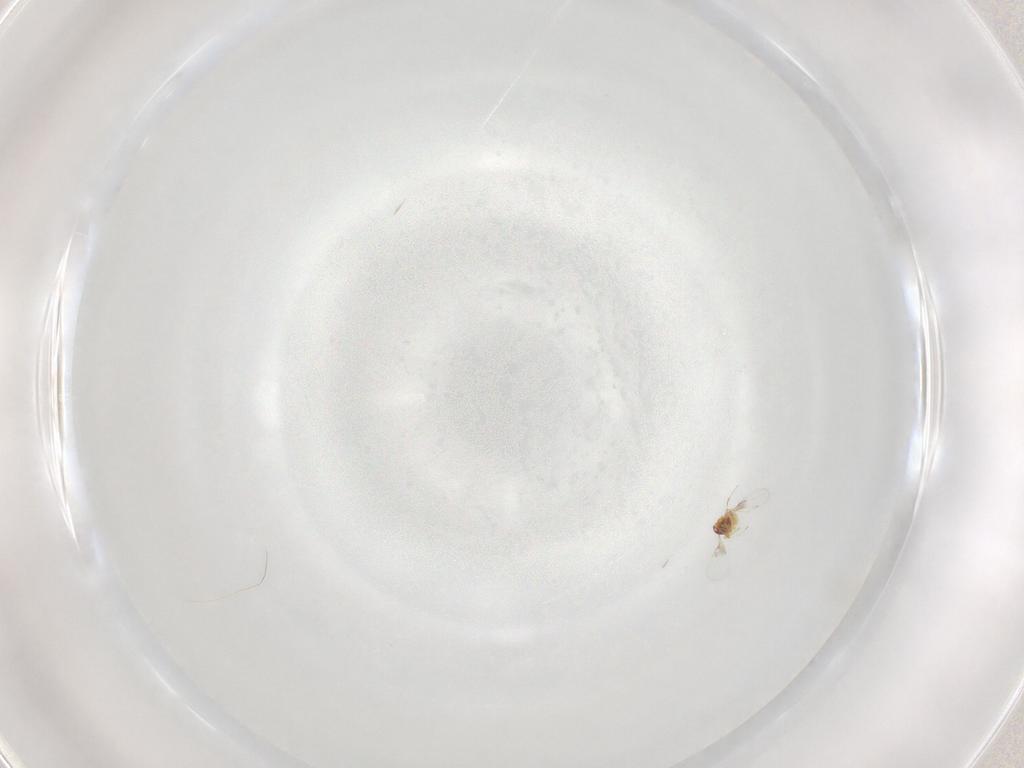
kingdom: Animalia
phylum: Arthropoda
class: Insecta
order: Hymenoptera
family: Trichogrammatidae
